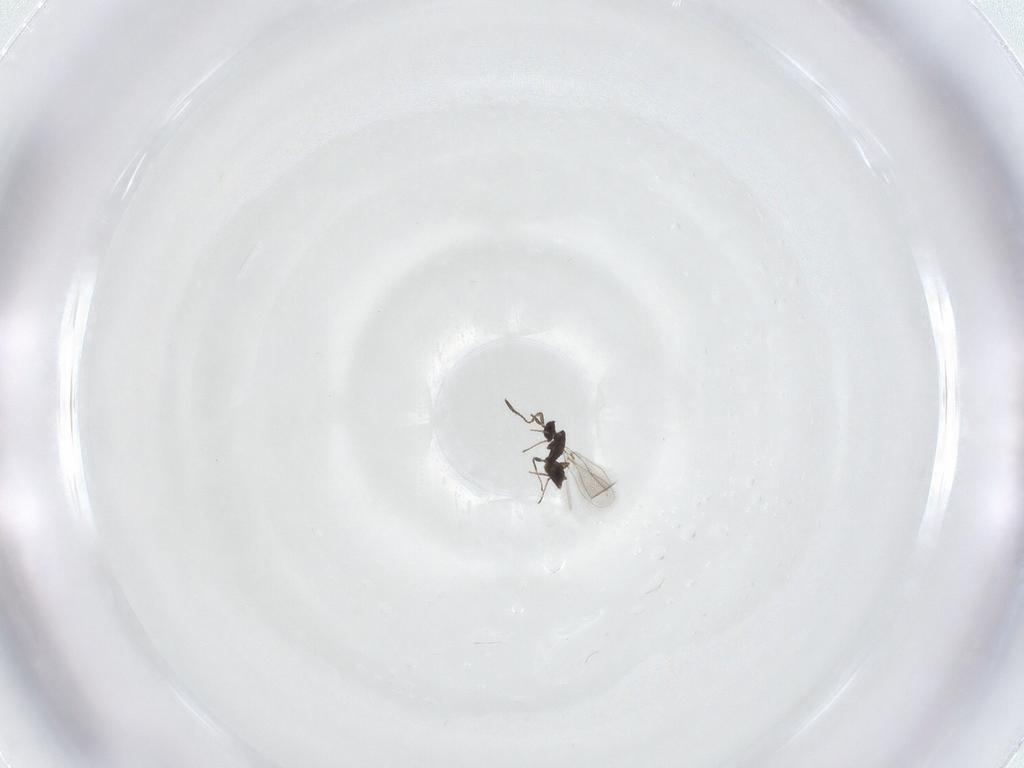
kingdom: Animalia
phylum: Arthropoda
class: Insecta
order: Hymenoptera
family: Mymaridae
